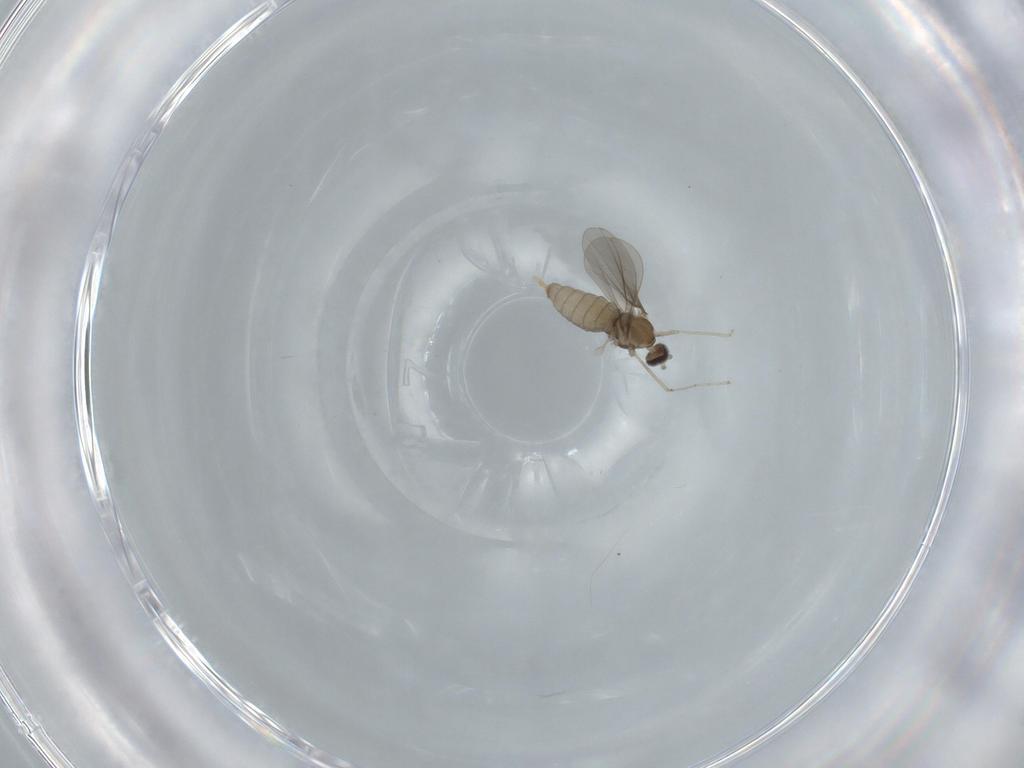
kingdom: Animalia
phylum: Arthropoda
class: Insecta
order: Diptera
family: Cecidomyiidae
